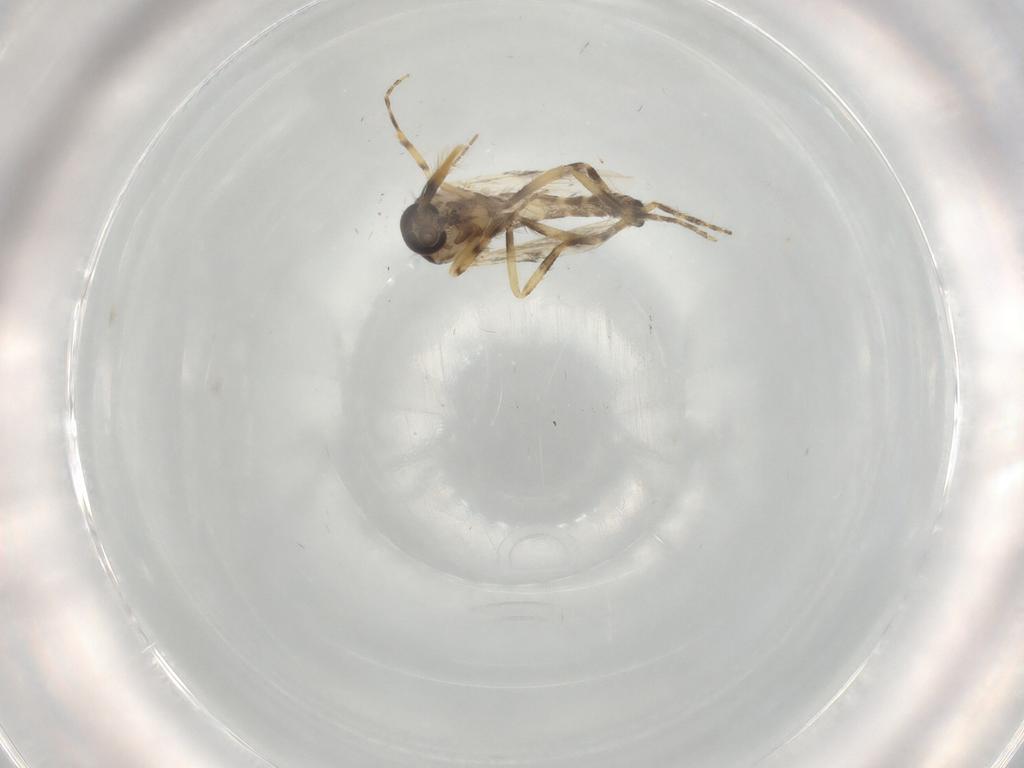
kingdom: Animalia
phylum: Arthropoda
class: Insecta
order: Diptera
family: Ceratopogonidae
